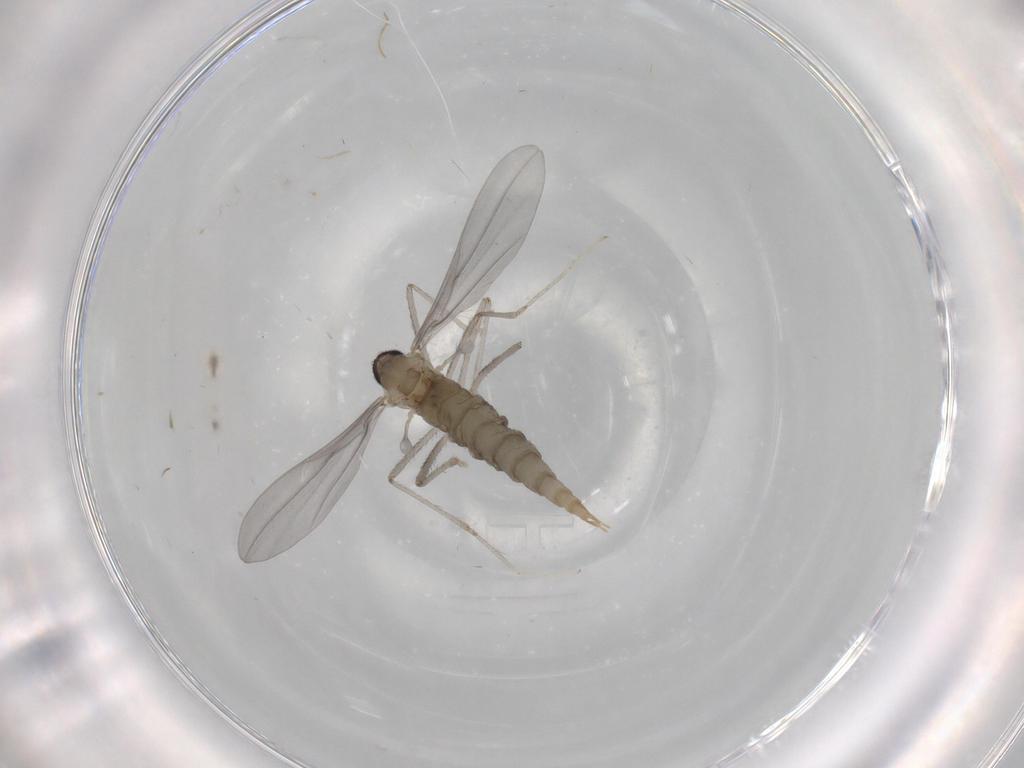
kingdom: Animalia
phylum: Arthropoda
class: Insecta
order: Diptera
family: Cecidomyiidae
